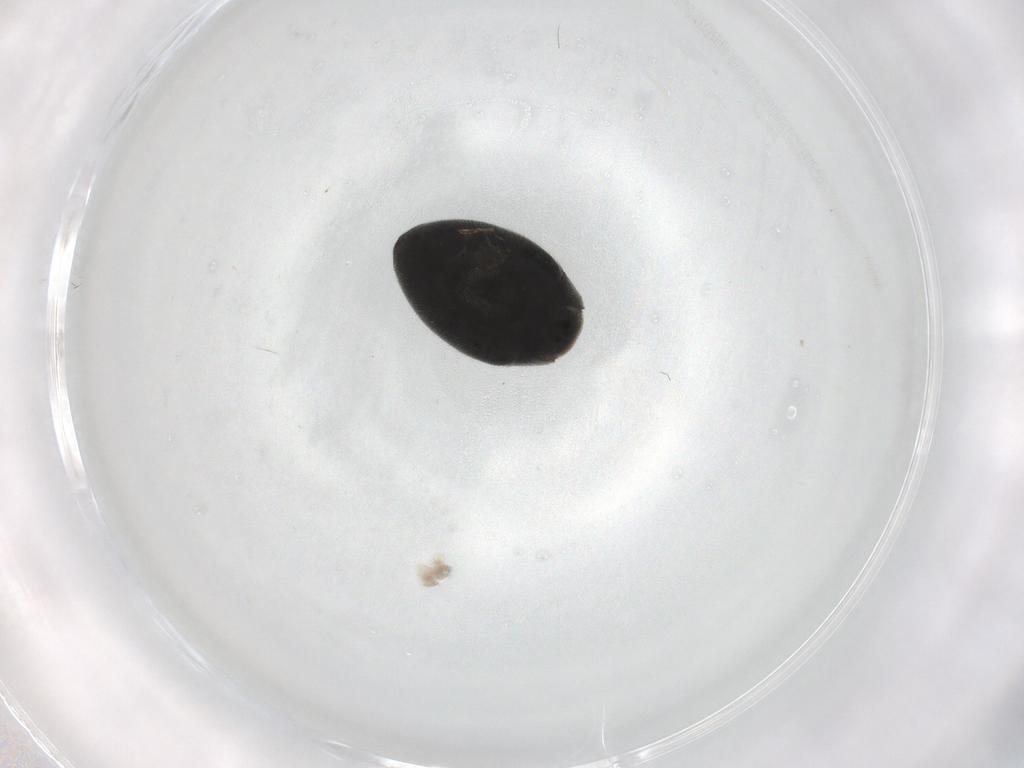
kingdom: Animalia
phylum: Arthropoda
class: Insecta
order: Coleoptera
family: Limnichidae
